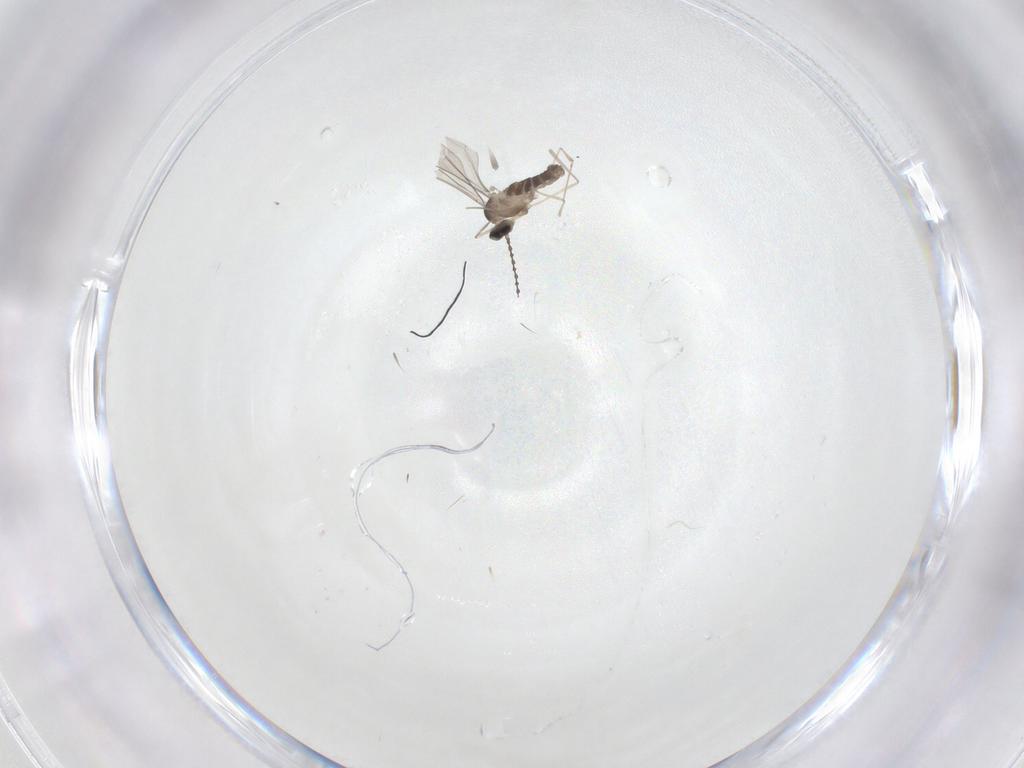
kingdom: Animalia
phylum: Arthropoda
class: Insecta
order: Diptera
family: Cecidomyiidae
